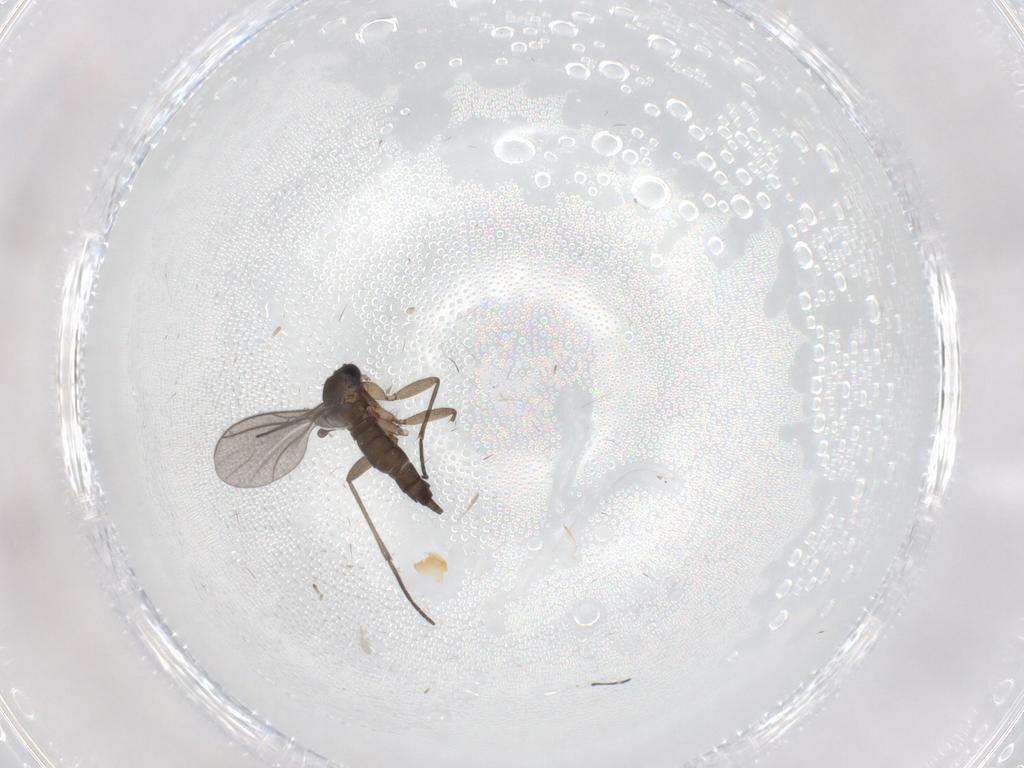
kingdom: Animalia
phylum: Arthropoda
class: Insecta
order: Diptera
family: Sciaridae
